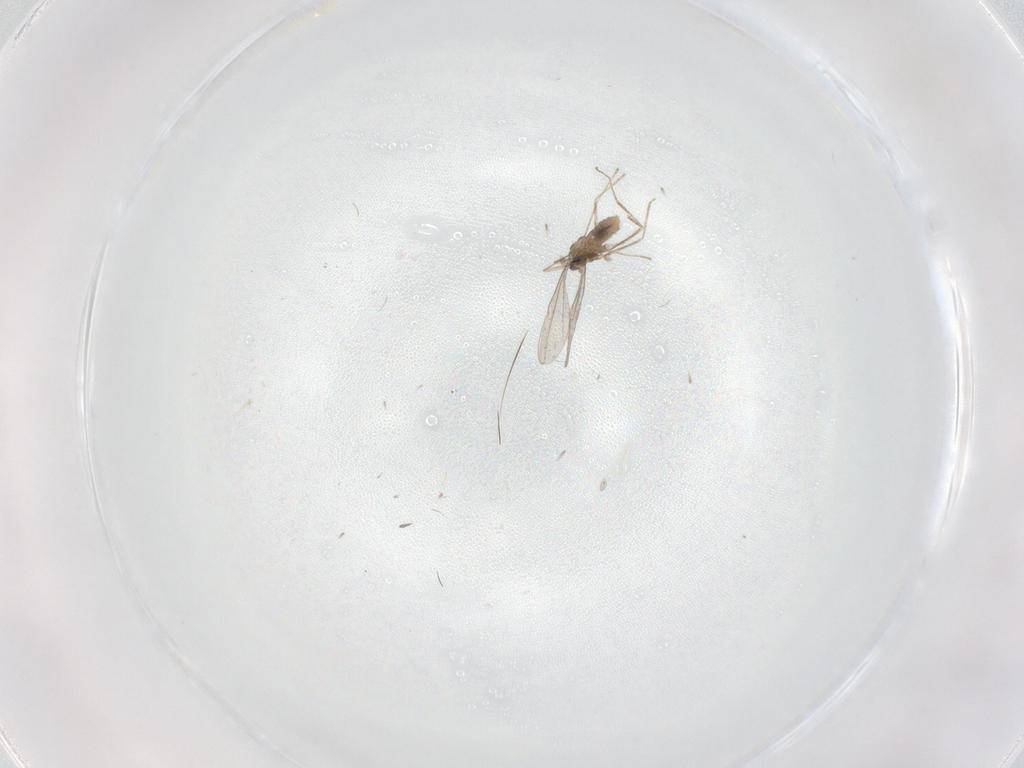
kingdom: Animalia
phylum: Arthropoda
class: Insecta
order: Diptera
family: Cecidomyiidae
